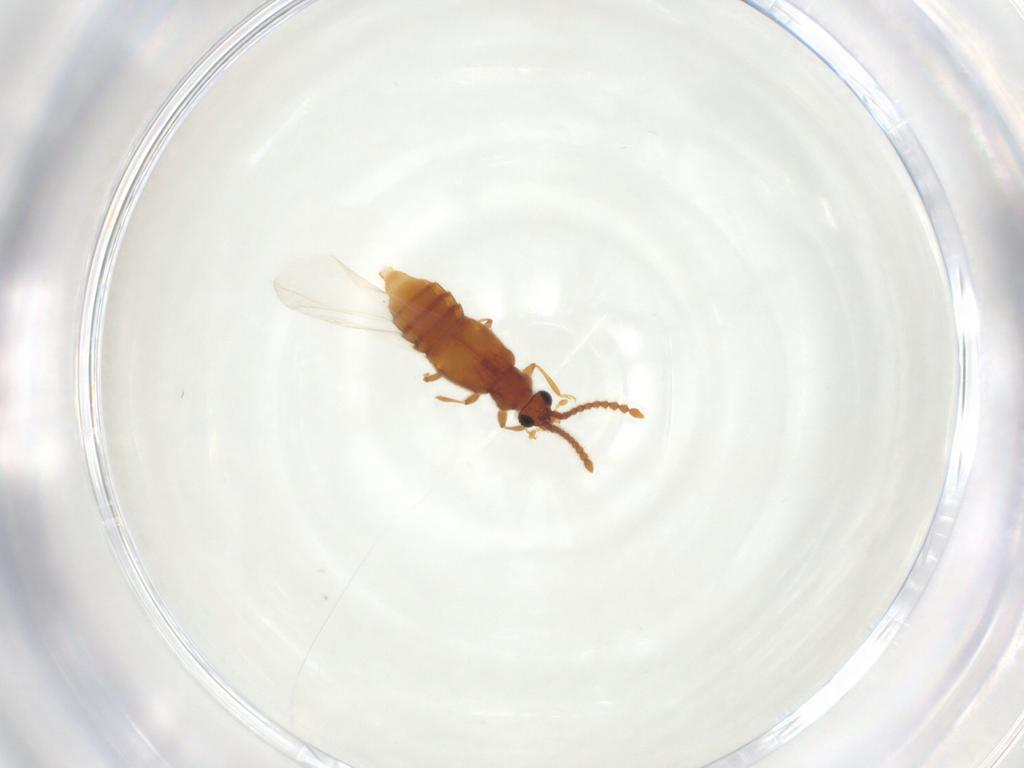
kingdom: Animalia
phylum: Arthropoda
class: Insecta
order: Coleoptera
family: Staphylinidae
